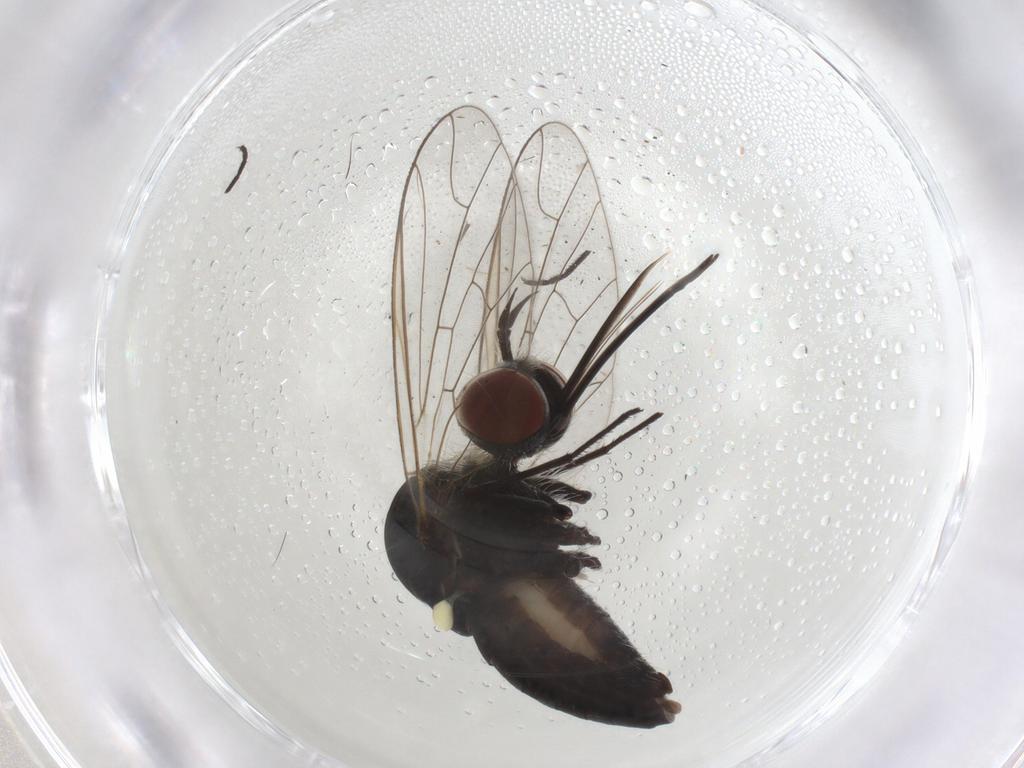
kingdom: Animalia
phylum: Arthropoda
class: Insecta
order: Diptera
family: Bombyliidae
